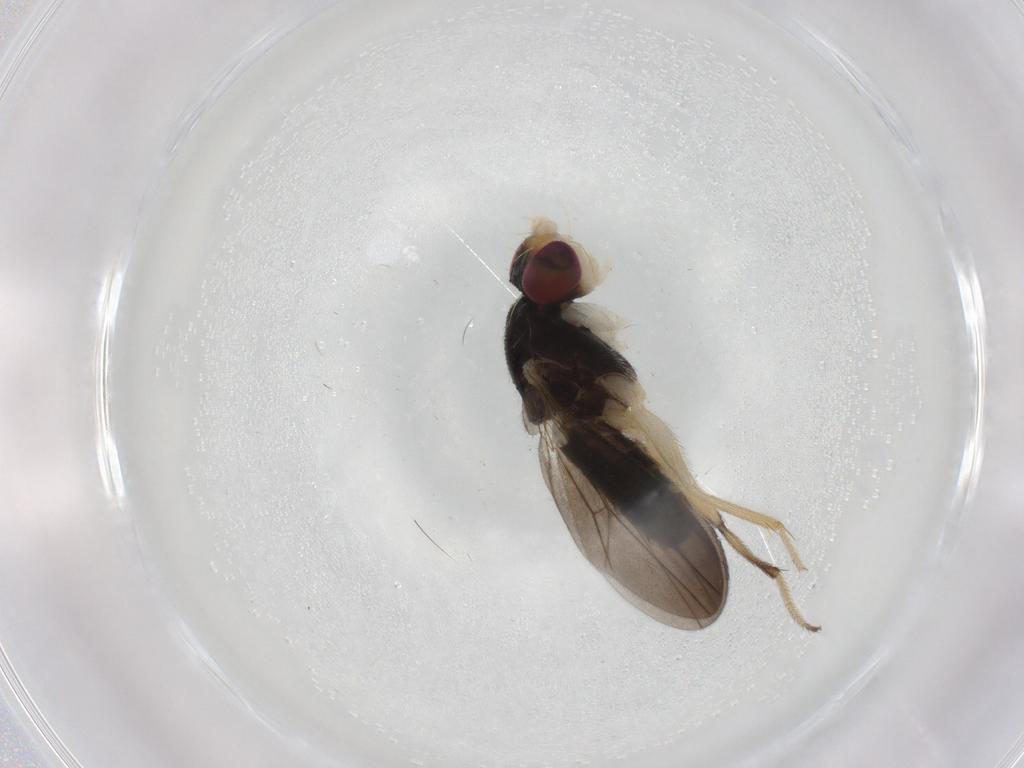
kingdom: Animalia
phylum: Arthropoda
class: Insecta
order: Diptera
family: Clusiidae
